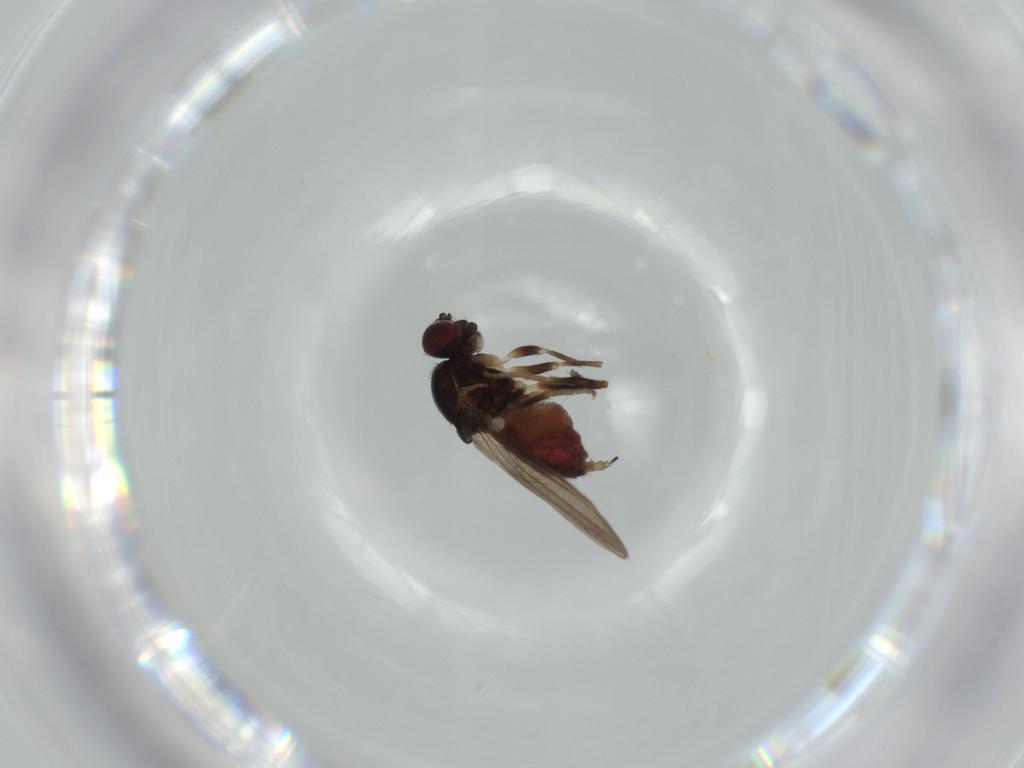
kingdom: Animalia
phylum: Arthropoda
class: Insecta
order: Diptera
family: Chloropidae
